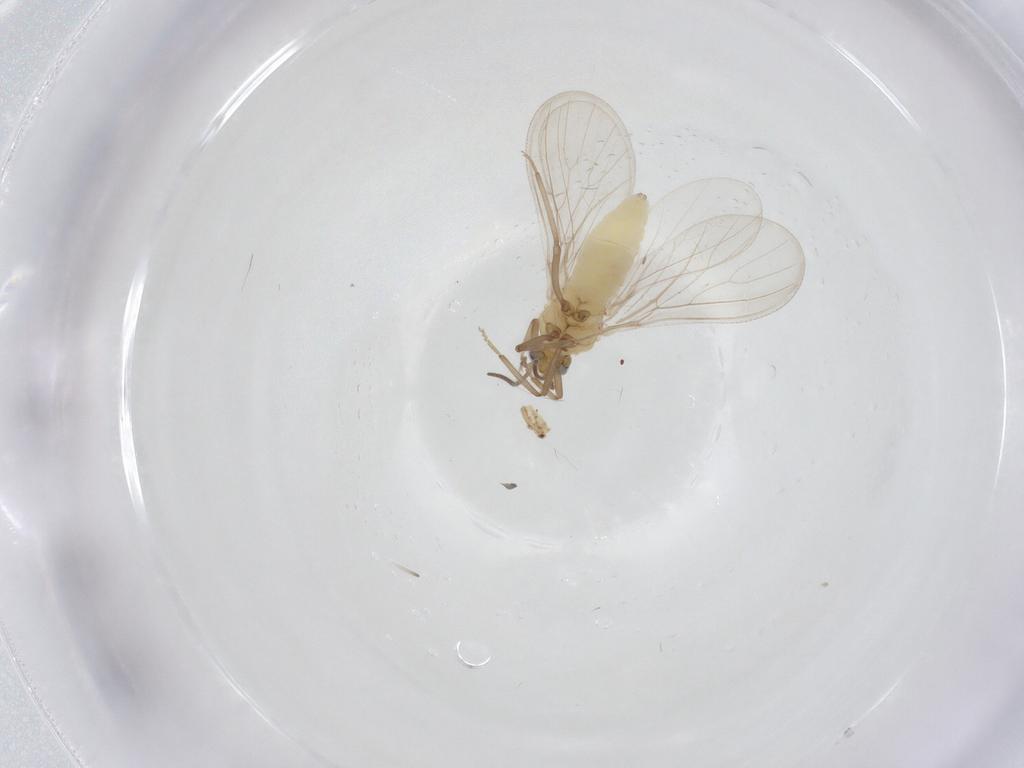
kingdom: Animalia
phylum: Arthropoda
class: Insecta
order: Neuroptera
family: Coniopterygidae
